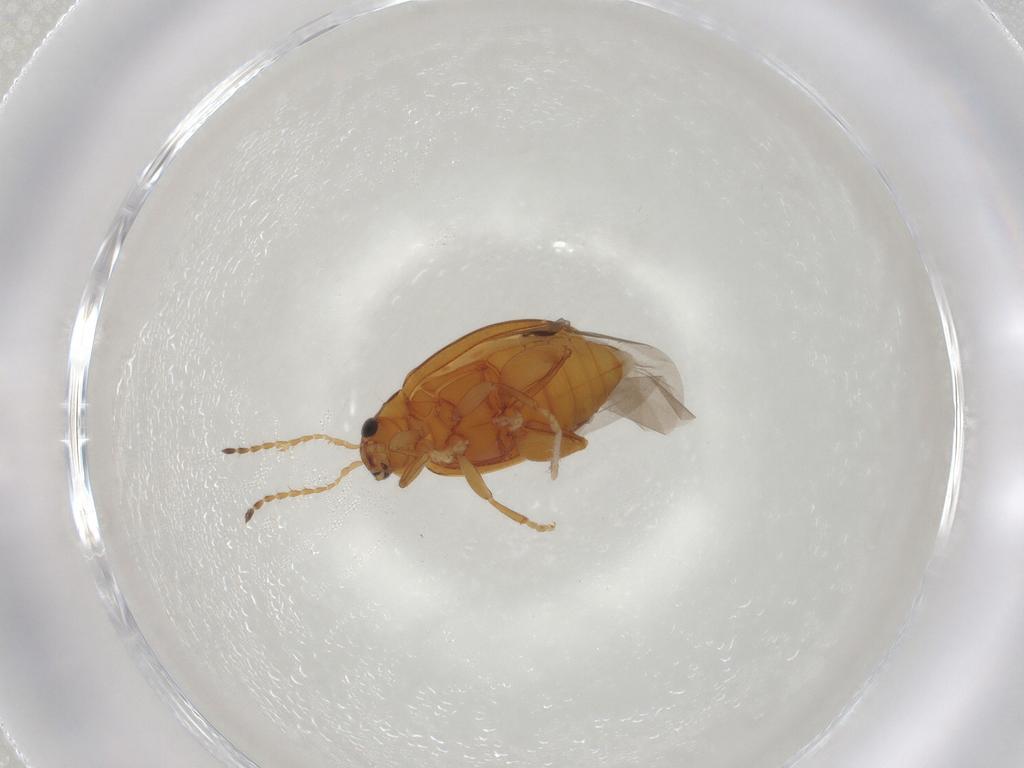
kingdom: Animalia
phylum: Arthropoda
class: Insecta
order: Coleoptera
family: Chrysomelidae
